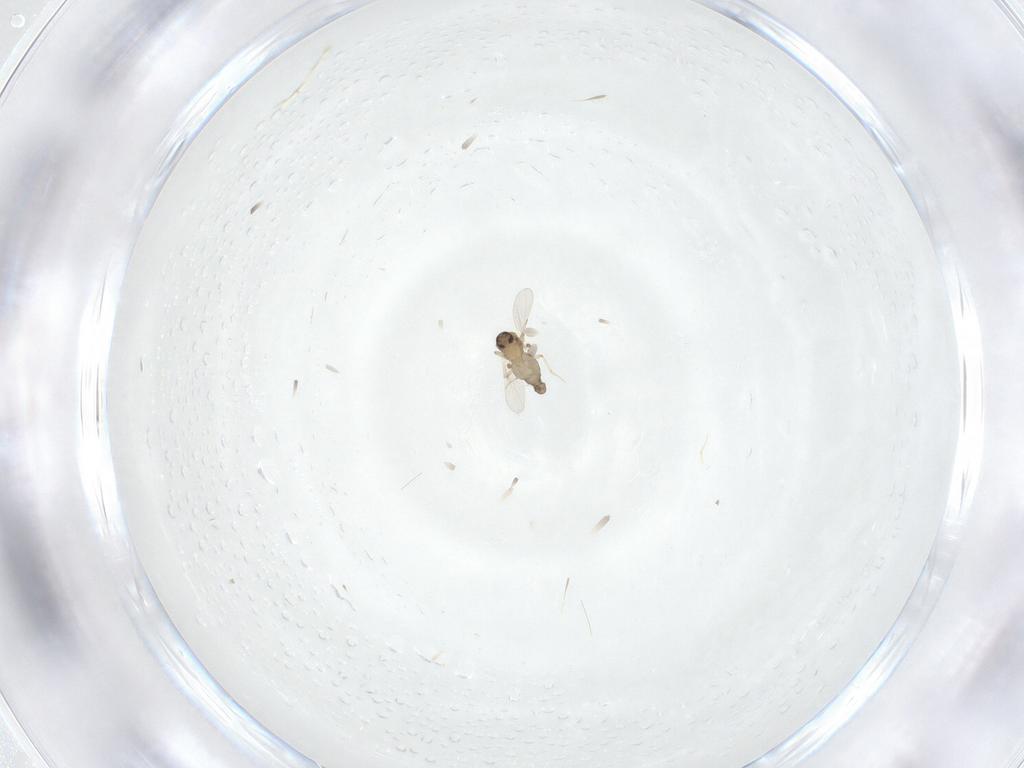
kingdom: Animalia
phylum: Arthropoda
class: Insecta
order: Diptera
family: Ceratopogonidae
